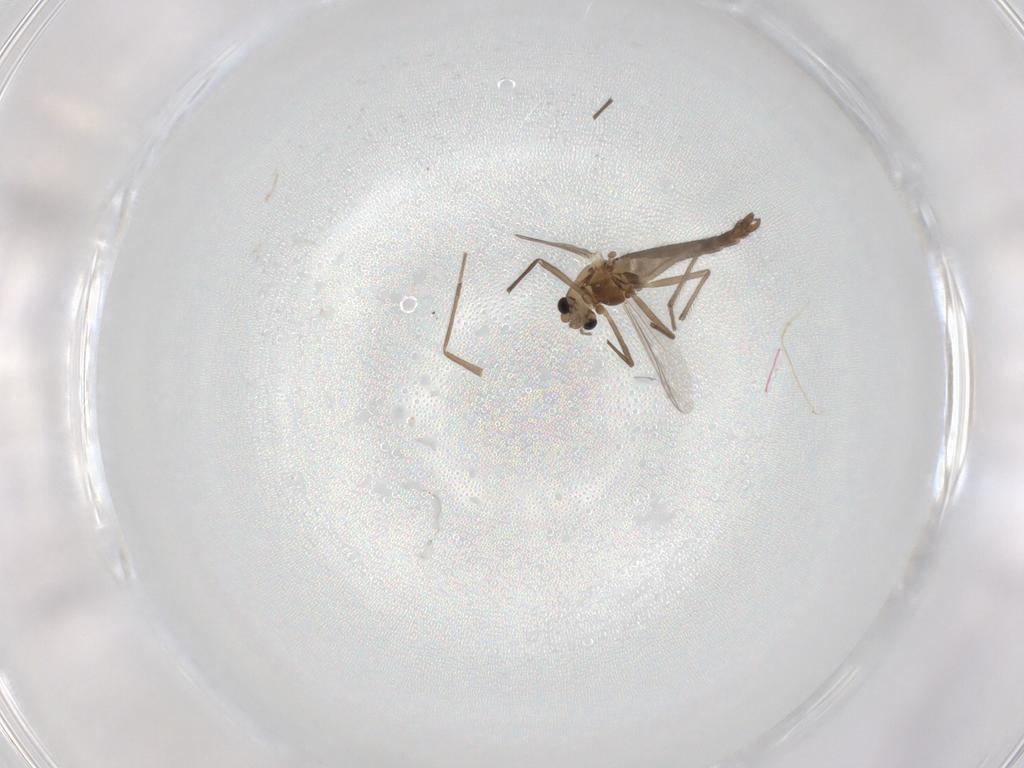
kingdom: Animalia
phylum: Arthropoda
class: Insecta
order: Diptera
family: Chironomidae
